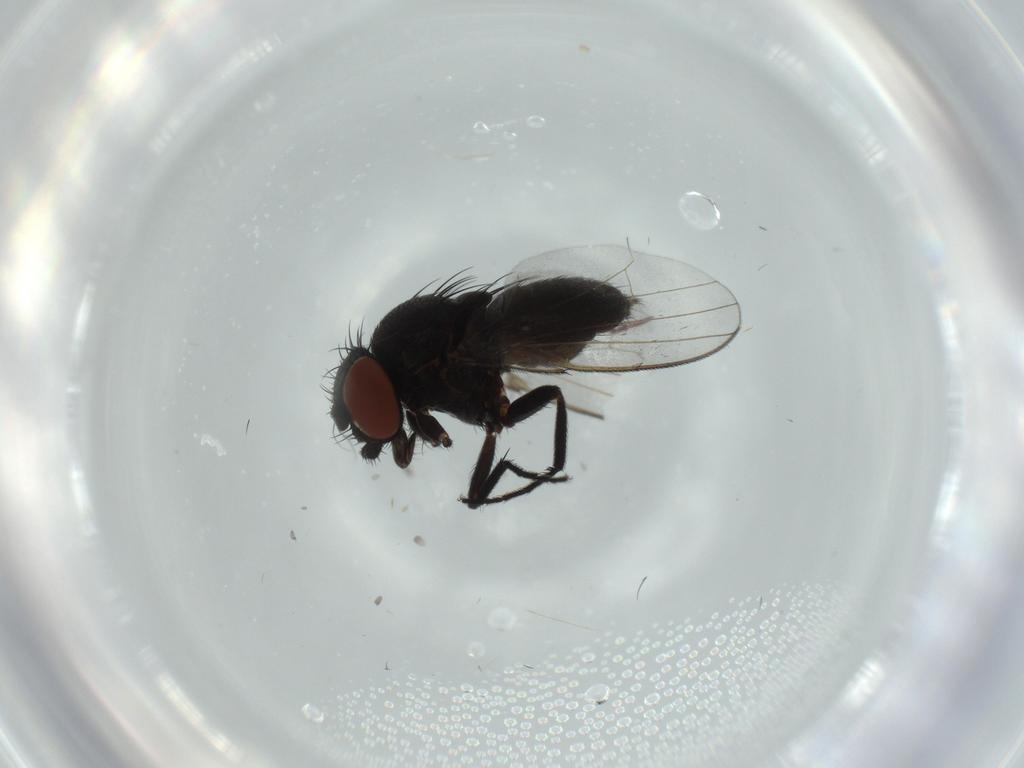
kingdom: Animalia
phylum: Arthropoda
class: Insecta
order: Diptera
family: Milichiidae
